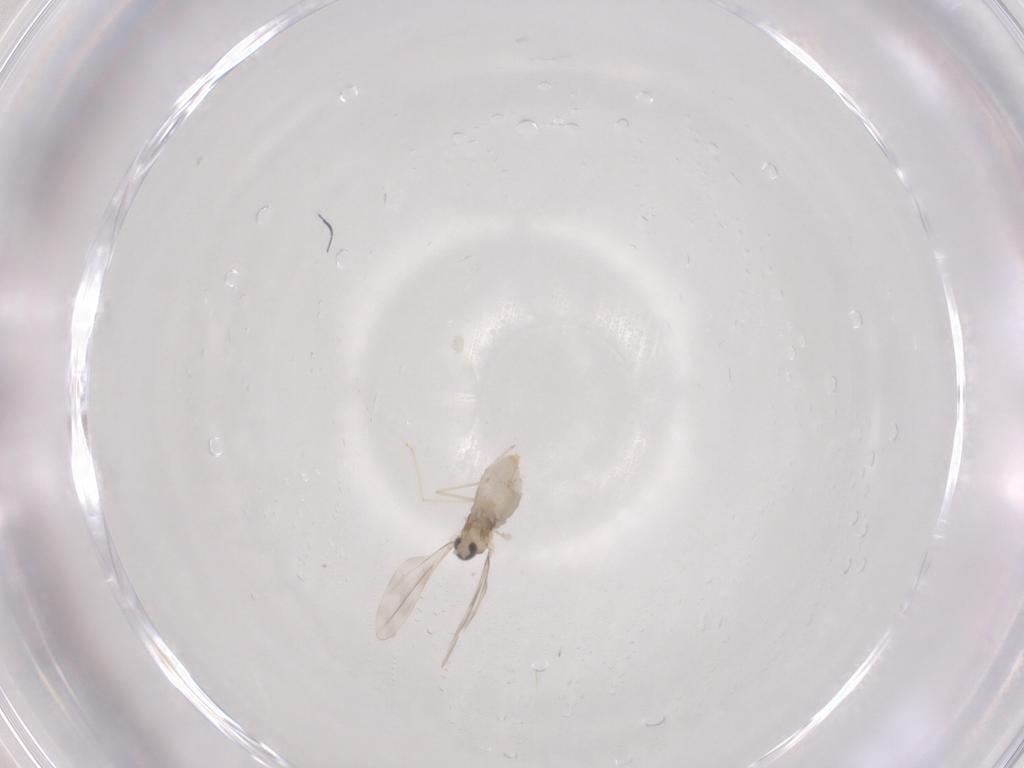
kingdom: Animalia
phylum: Arthropoda
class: Insecta
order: Diptera
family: Cecidomyiidae
